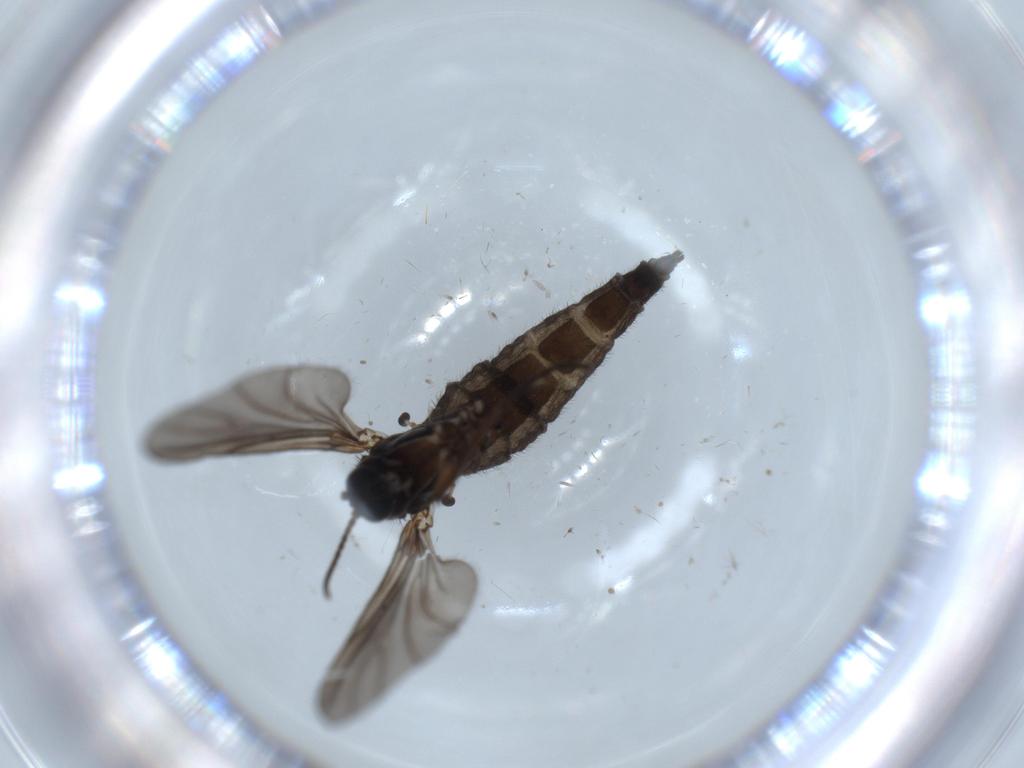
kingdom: Animalia
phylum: Arthropoda
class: Insecta
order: Diptera
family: Sciaridae
